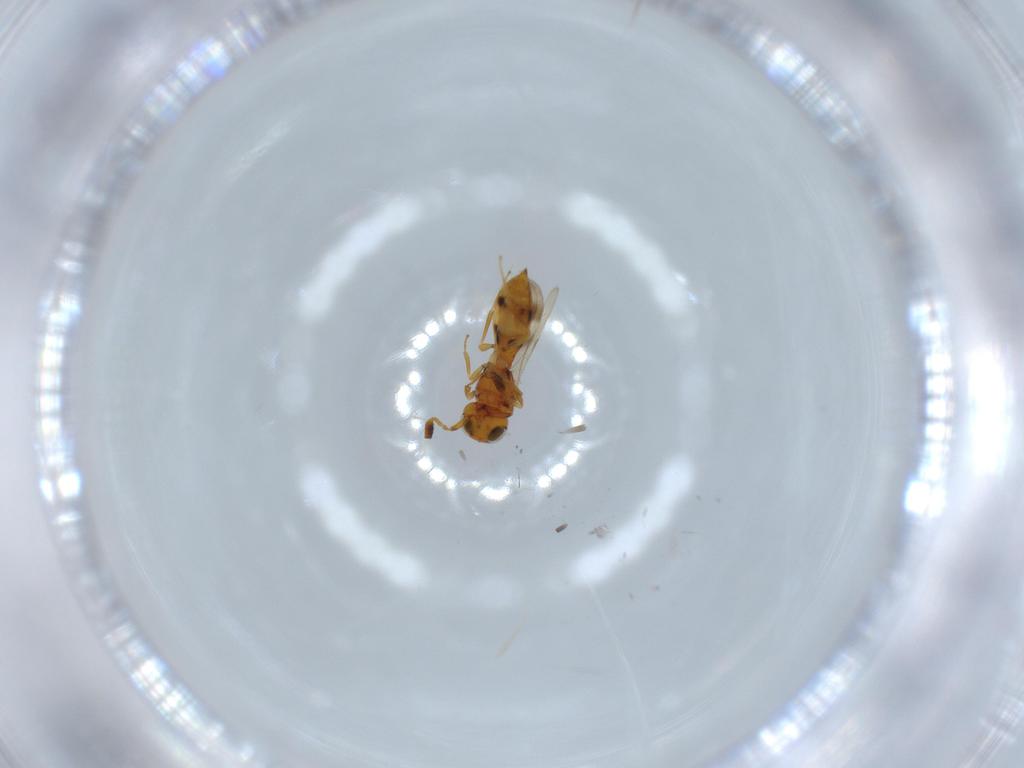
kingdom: Animalia
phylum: Arthropoda
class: Insecta
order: Hymenoptera
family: Scelionidae
